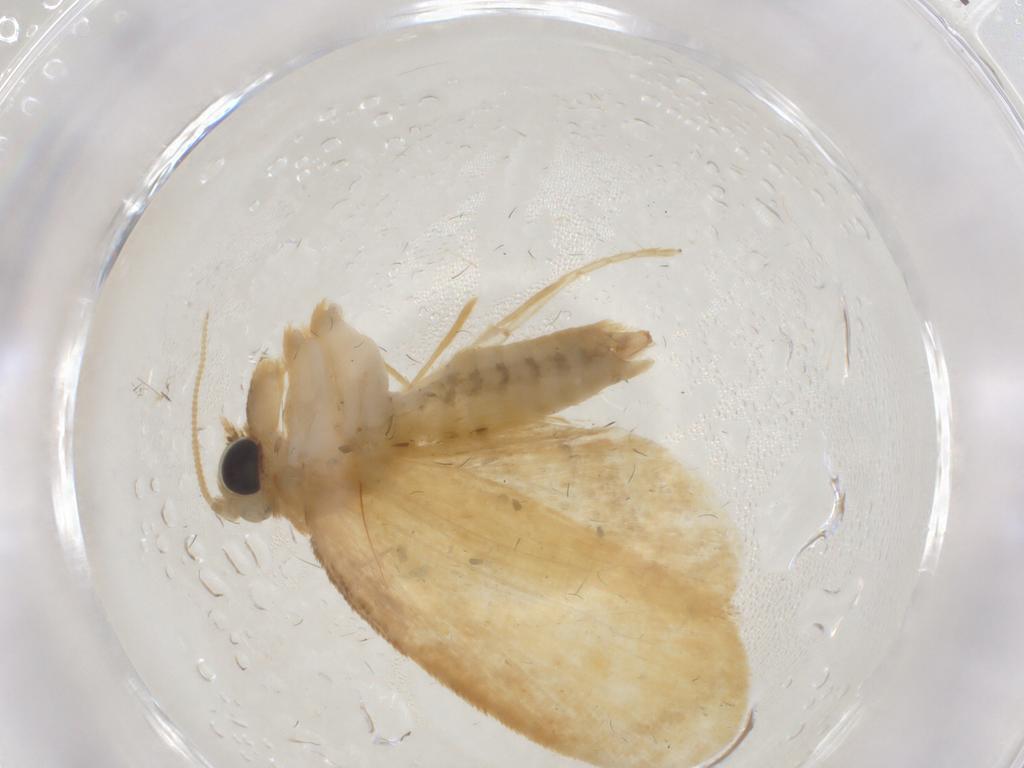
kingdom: Animalia
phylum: Arthropoda
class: Insecta
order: Lepidoptera
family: Psychidae
